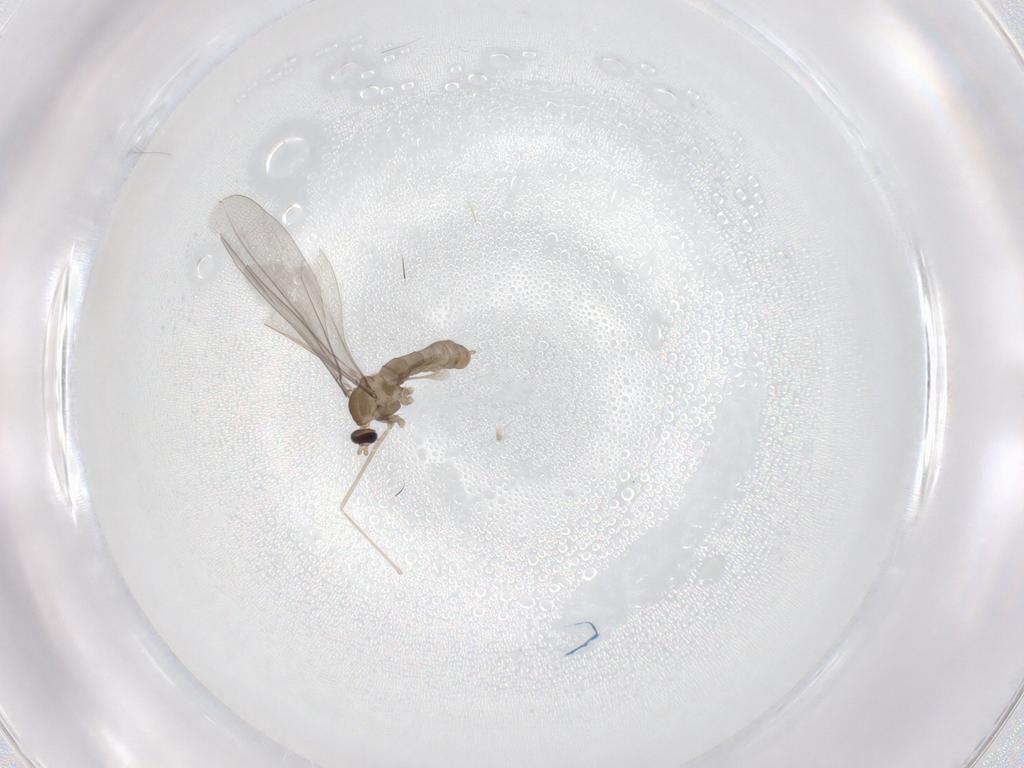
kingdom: Animalia
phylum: Arthropoda
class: Insecta
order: Diptera
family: Cecidomyiidae
